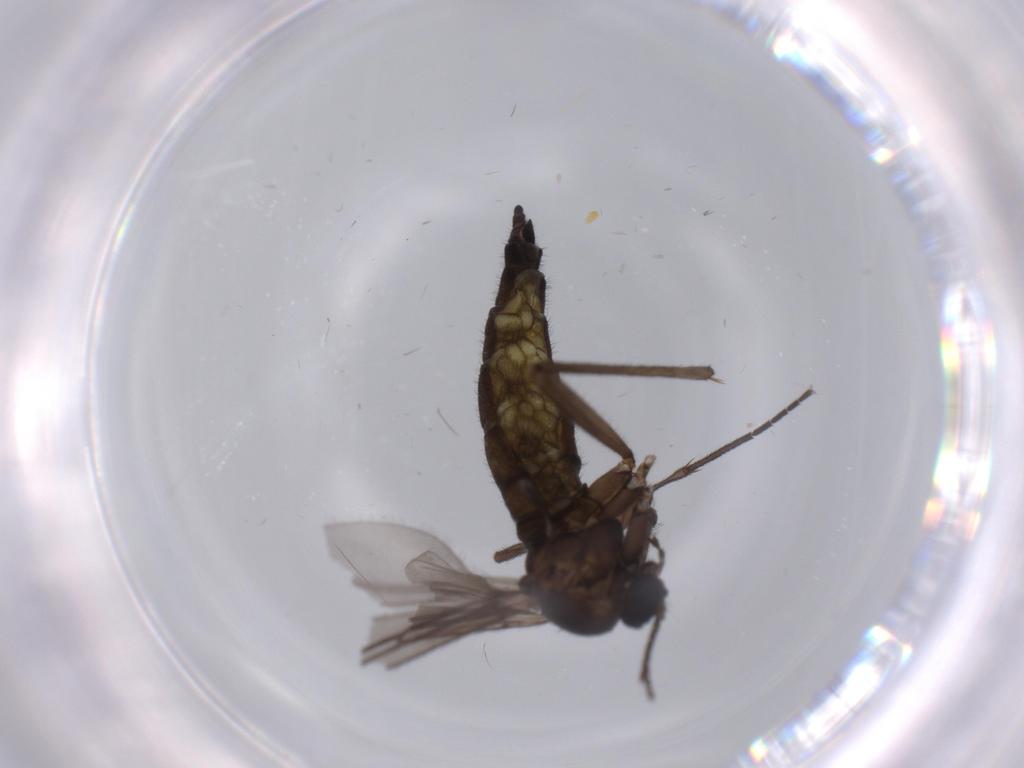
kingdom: Animalia
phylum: Arthropoda
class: Insecta
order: Diptera
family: Sciaridae
